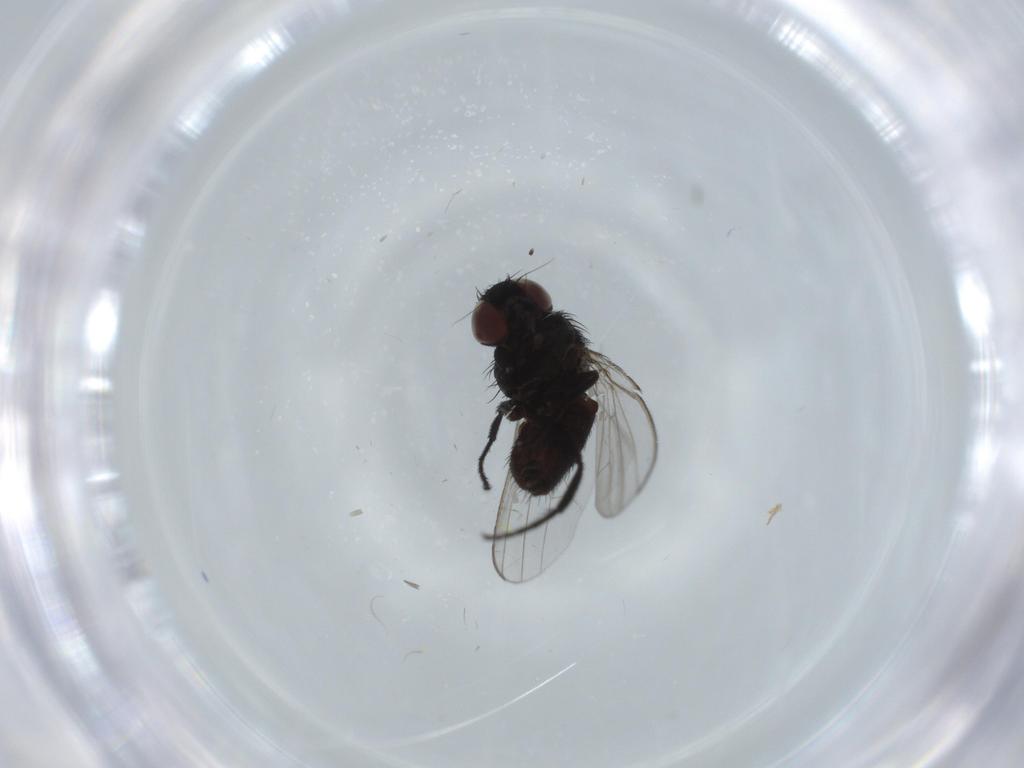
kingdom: Animalia
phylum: Arthropoda
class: Insecta
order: Diptera
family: Milichiidae
